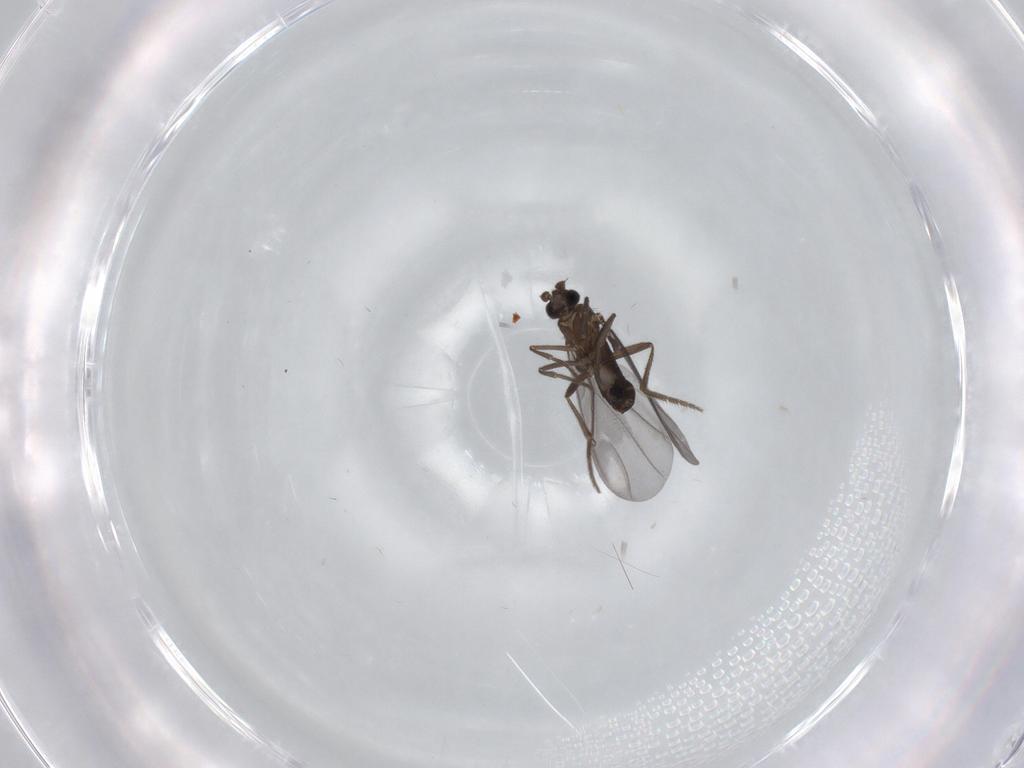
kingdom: Animalia
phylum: Arthropoda
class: Insecta
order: Diptera
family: Phoridae
